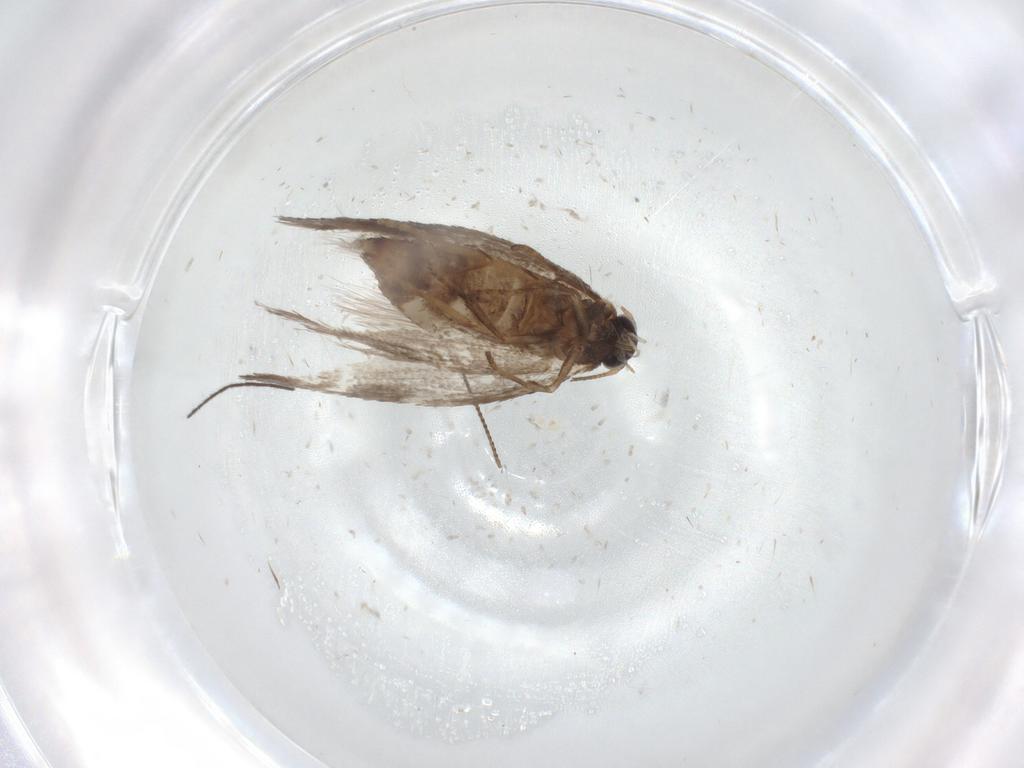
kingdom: Animalia
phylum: Arthropoda
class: Insecta
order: Lepidoptera
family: Nepticulidae
